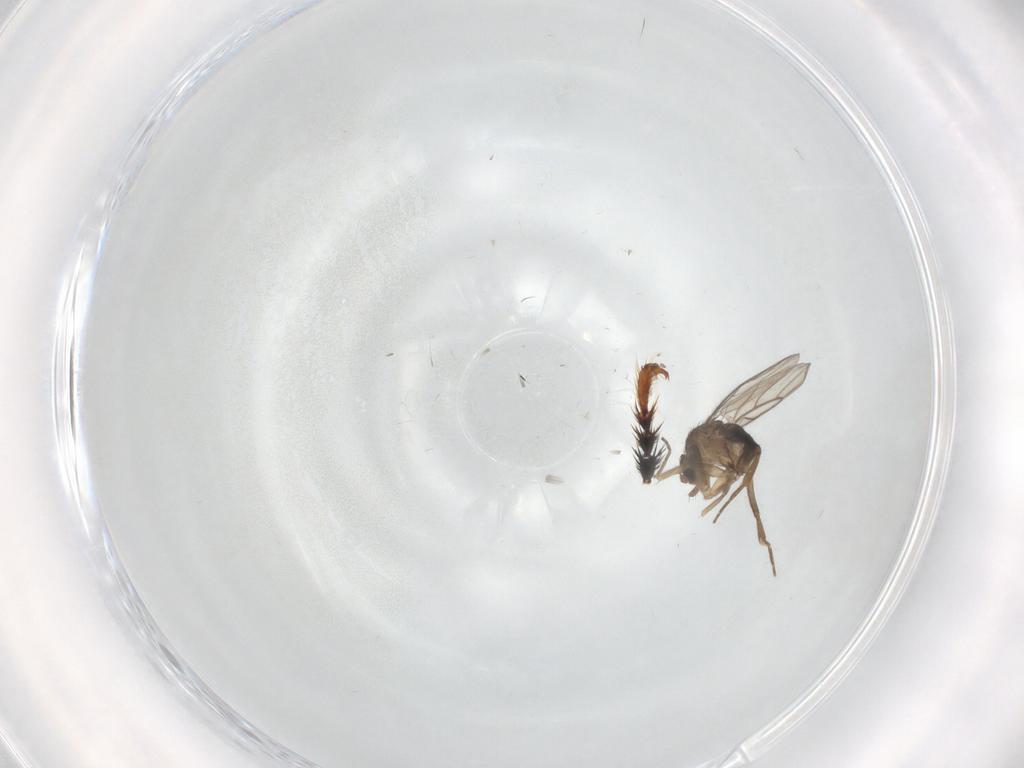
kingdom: Animalia
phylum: Arthropoda
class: Insecta
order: Diptera
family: Phoridae
